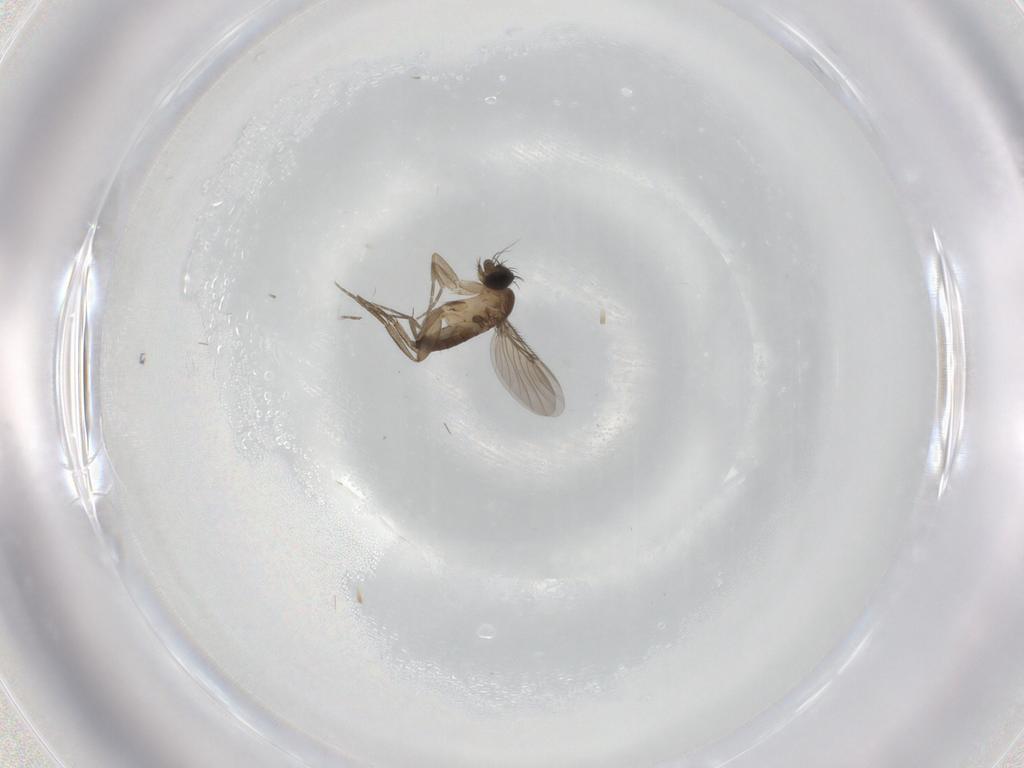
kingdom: Animalia
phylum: Arthropoda
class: Insecta
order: Diptera
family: Phoridae
